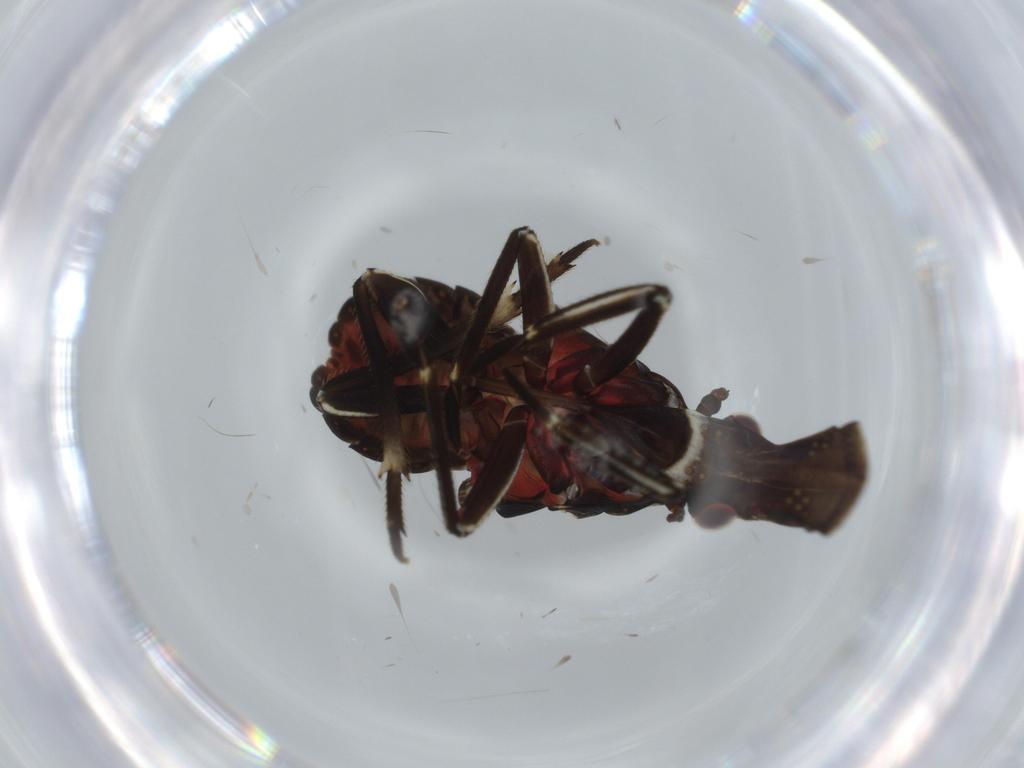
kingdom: Animalia
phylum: Arthropoda
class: Insecta
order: Hemiptera
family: Fulgoridae
